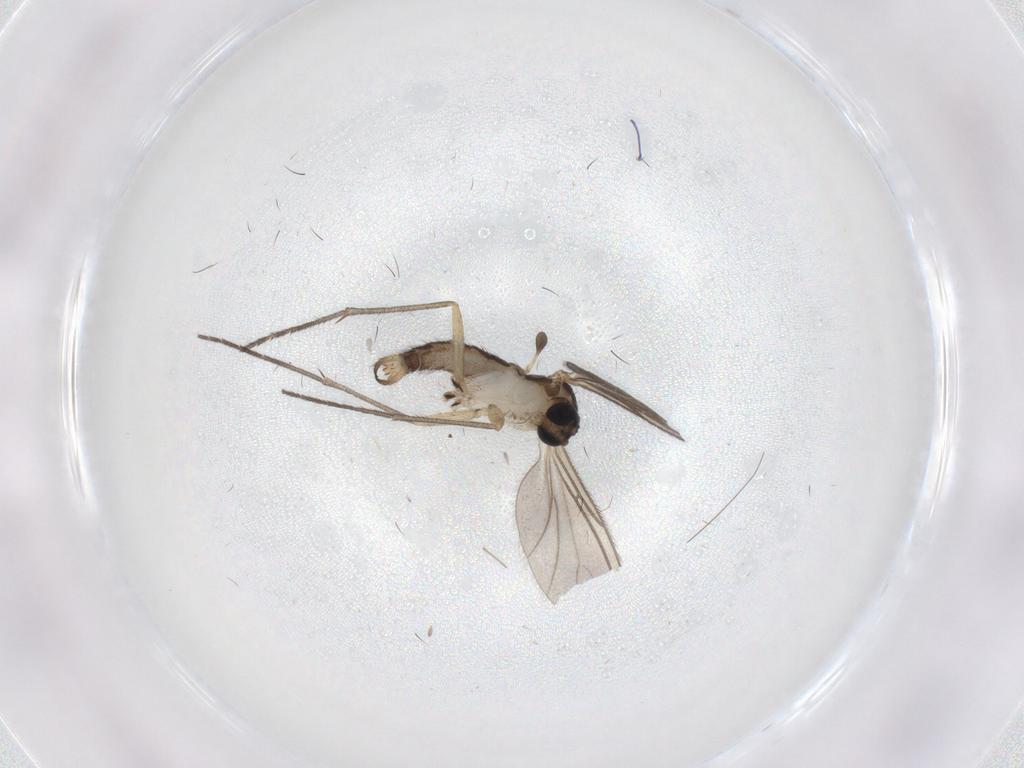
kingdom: Animalia
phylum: Arthropoda
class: Insecta
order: Diptera
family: Sciaridae
